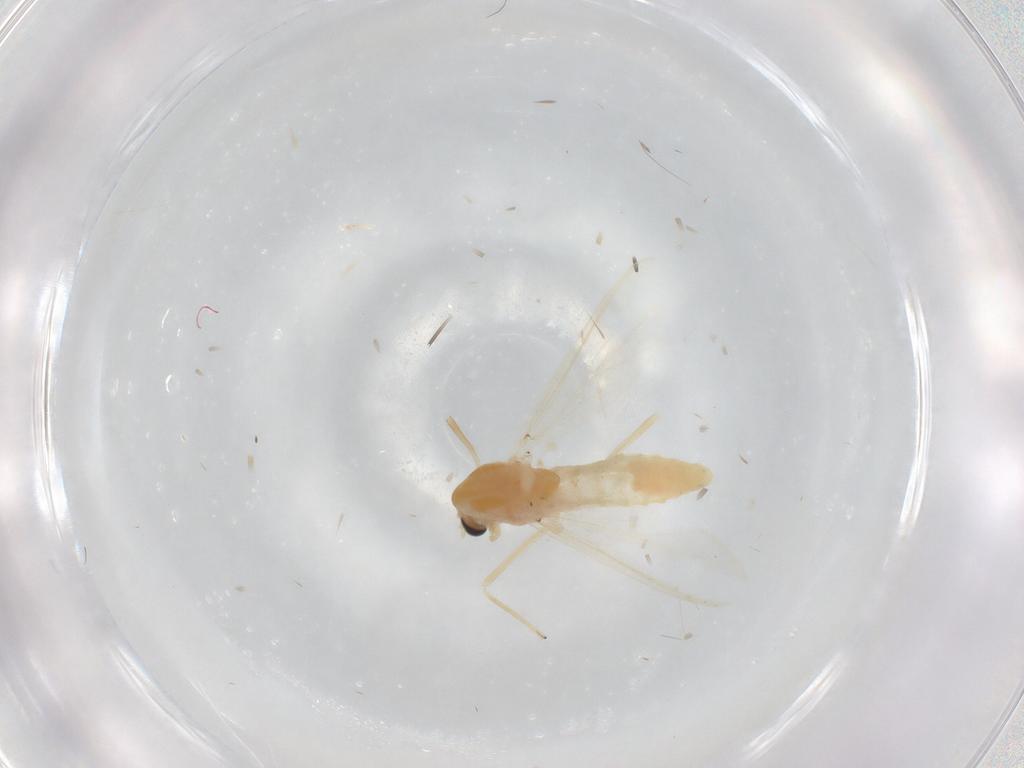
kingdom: Animalia
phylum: Arthropoda
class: Insecta
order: Diptera
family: Chironomidae
